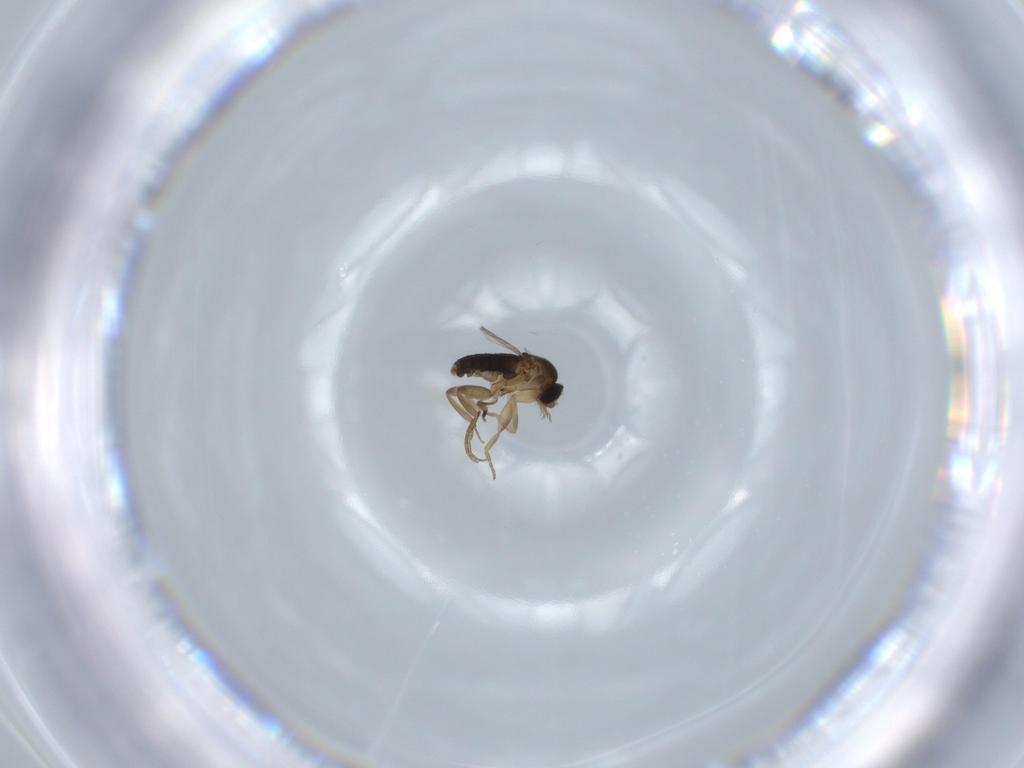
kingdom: Animalia
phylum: Arthropoda
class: Insecta
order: Diptera
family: Phoridae
